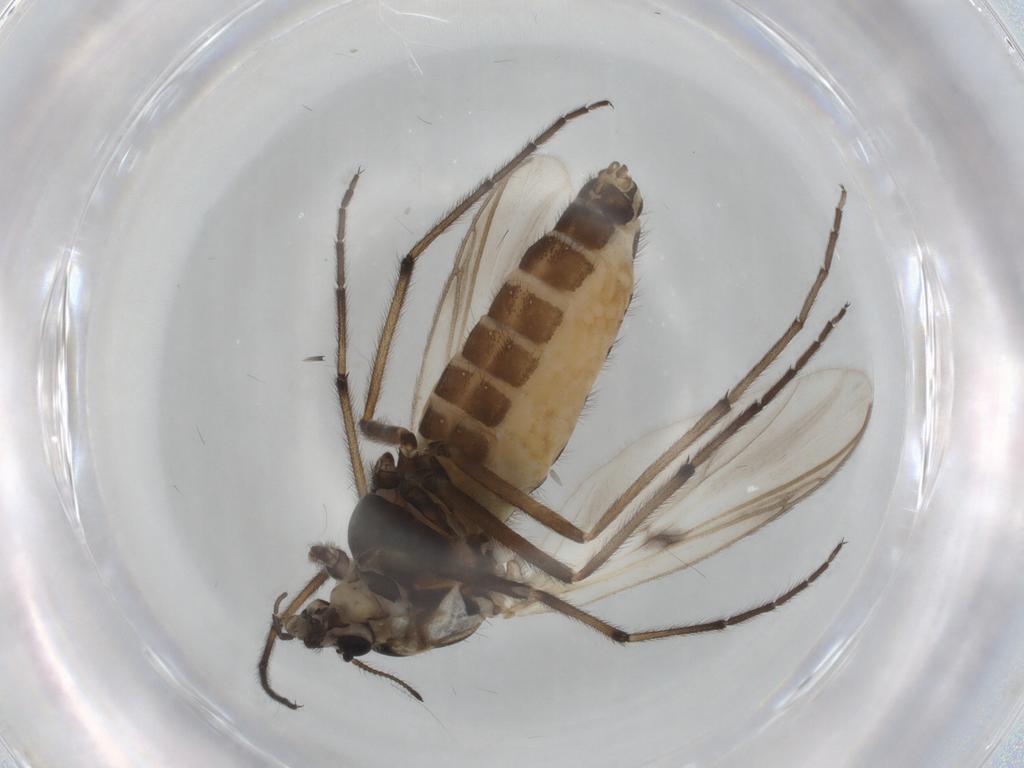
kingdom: Animalia
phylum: Arthropoda
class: Insecta
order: Diptera
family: Chironomidae
